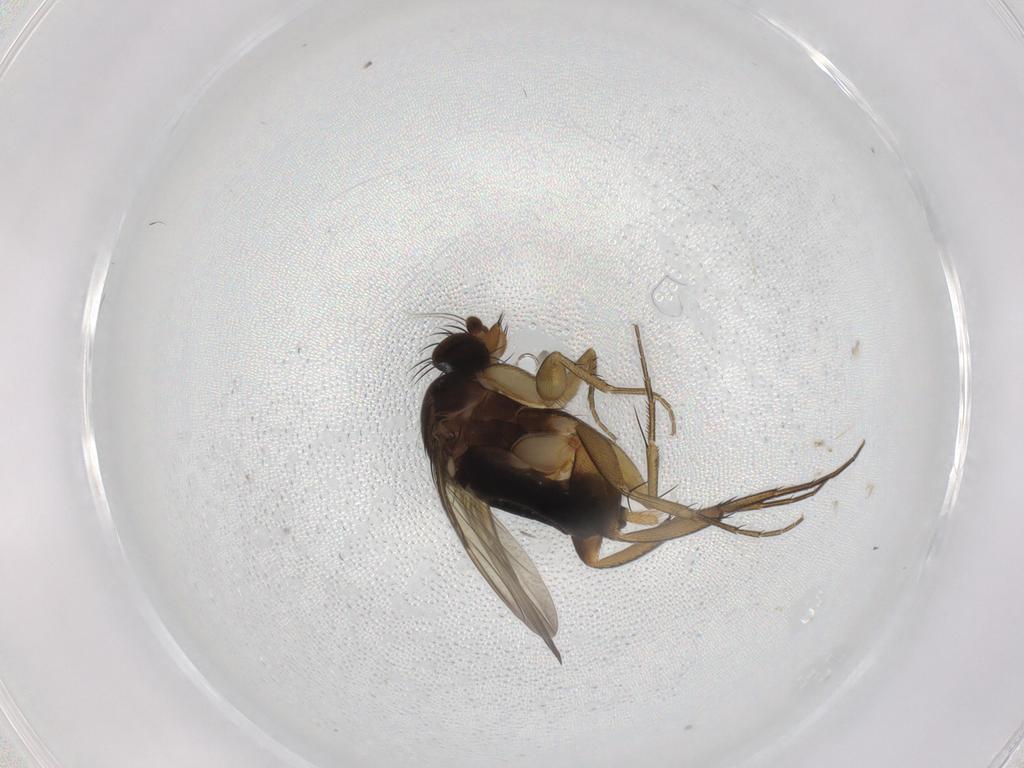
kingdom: Animalia
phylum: Arthropoda
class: Insecta
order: Diptera
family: Phoridae
